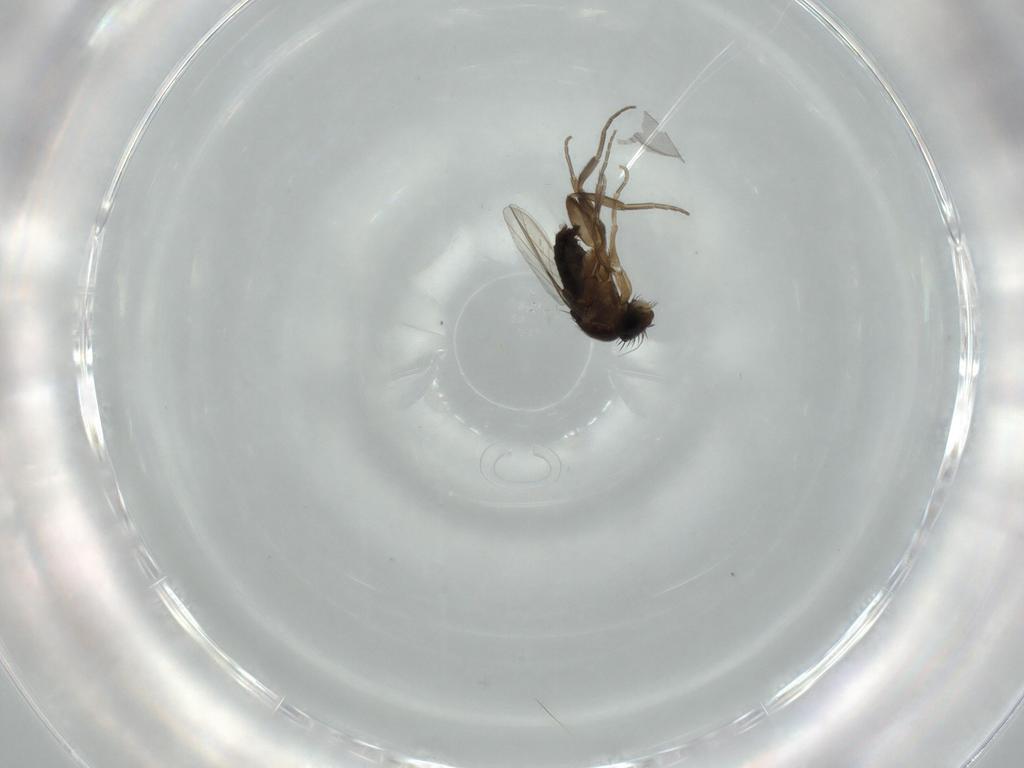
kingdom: Animalia
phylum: Arthropoda
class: Insecta
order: Diptera
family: Phoridae
